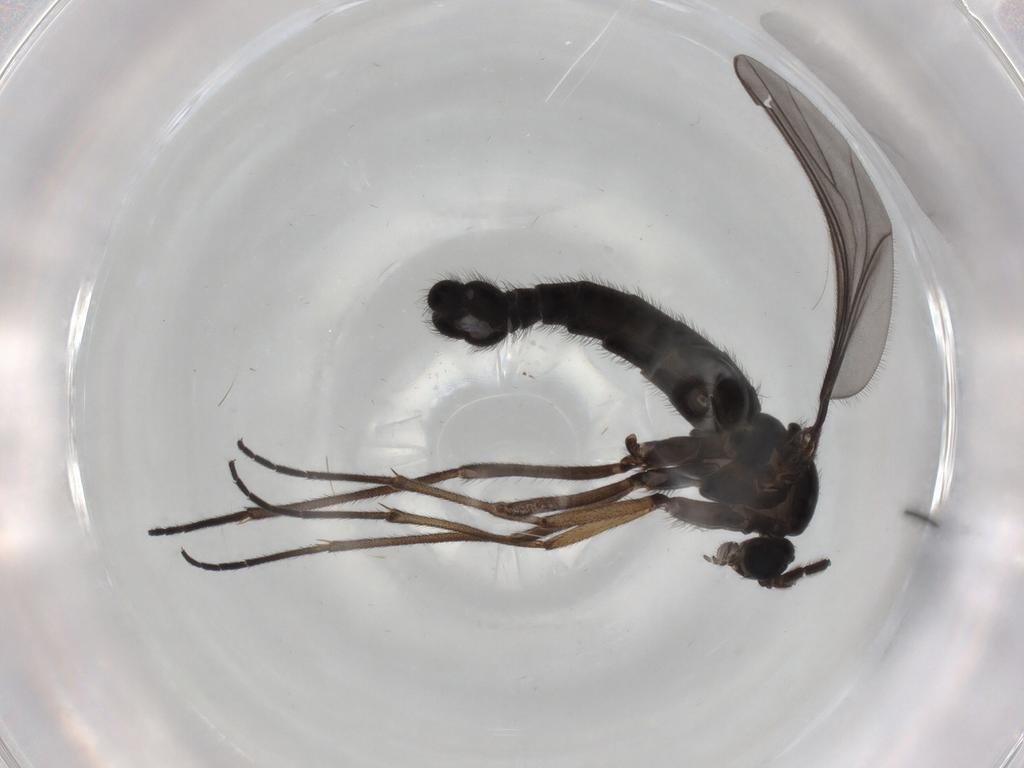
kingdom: Animalia
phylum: Arthropoda
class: Insecta
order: Diptera
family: Sciaridae
